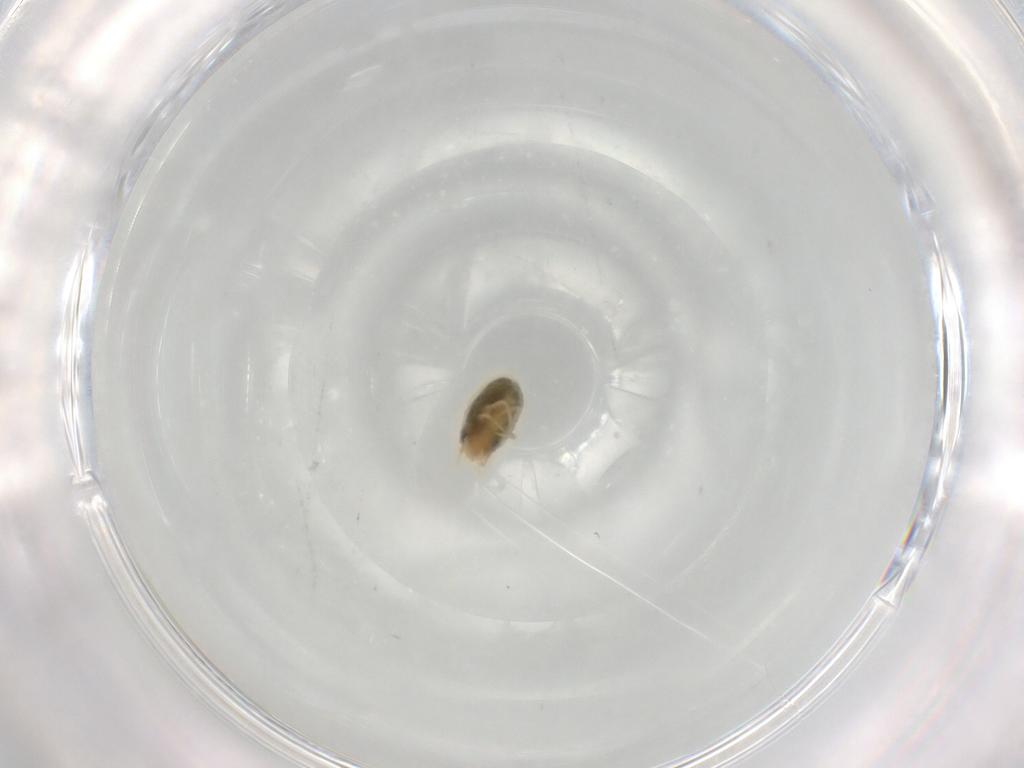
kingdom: Animalia
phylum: Arthropoda
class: Arachnida
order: Trombidiformes
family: Tetranychidae
